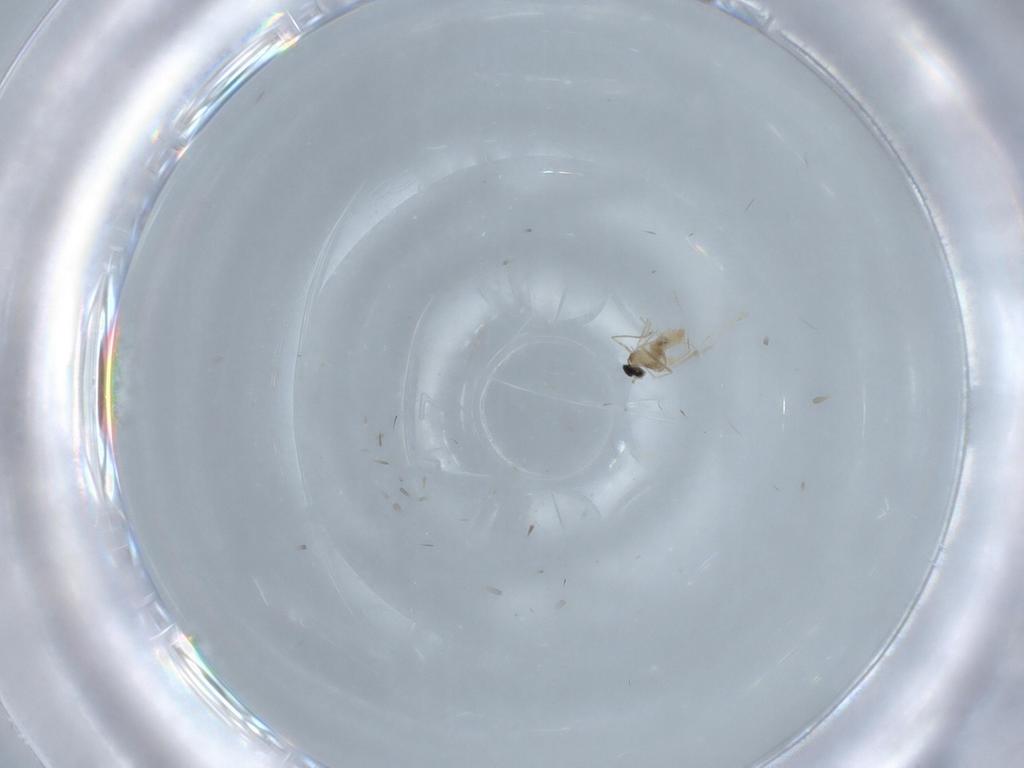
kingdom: Animalia
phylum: Arthropoda
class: Insecta
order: Diptera
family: Cecidomyiidae
